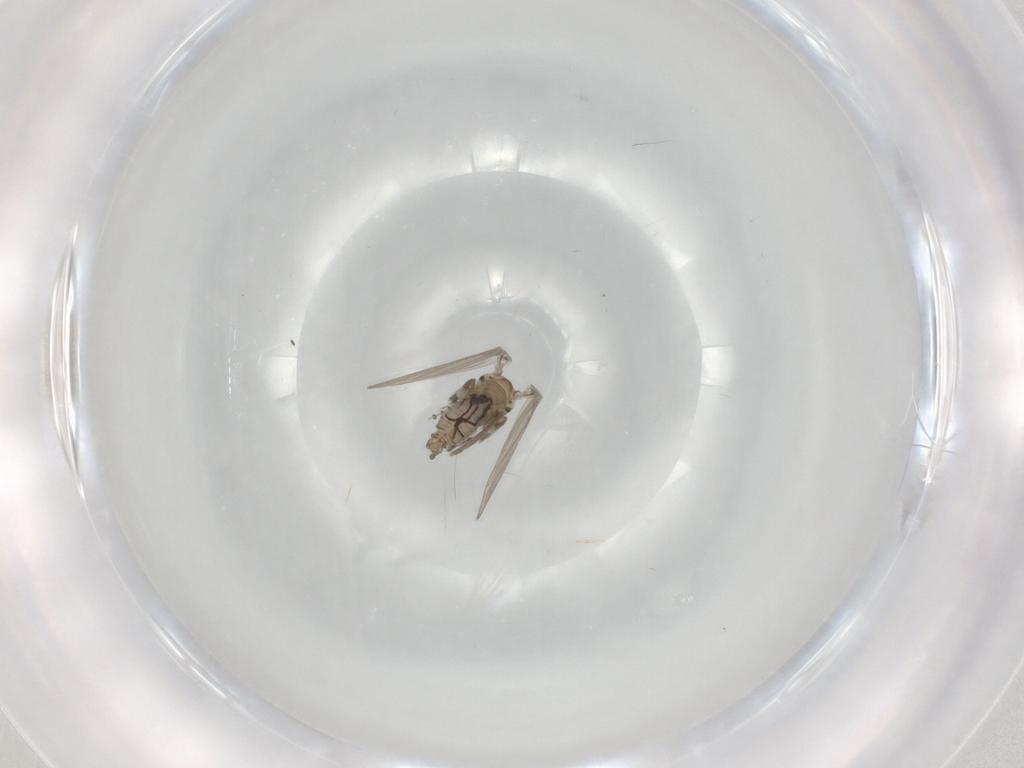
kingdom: Animalia
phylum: Arthropoda
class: Insecta
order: Diptera
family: Psychodidae
